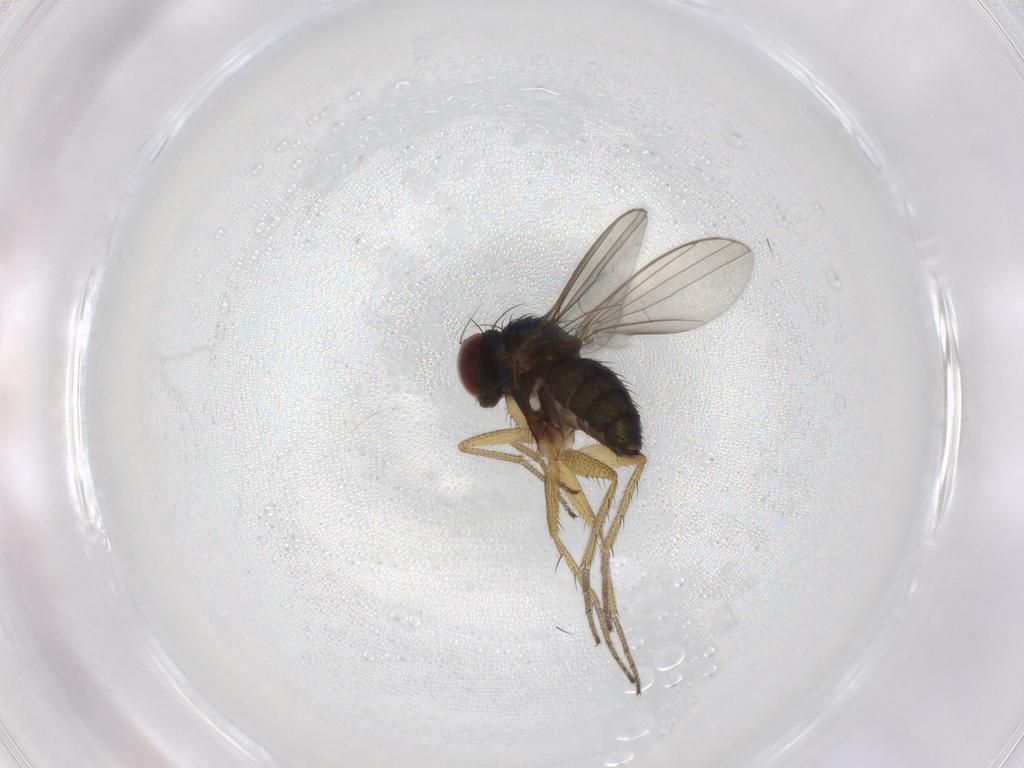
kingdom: Animalia
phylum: Arthropoda
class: Insecta
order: Diptera
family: Dolichopodidae
